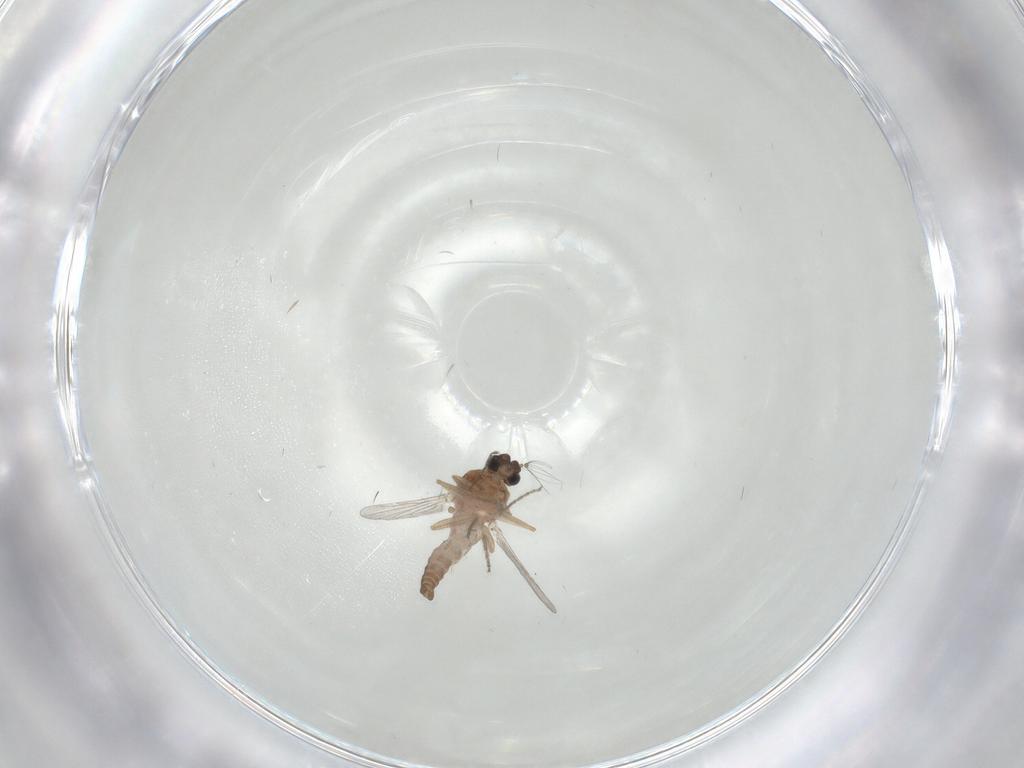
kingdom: Animalia
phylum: Arthropoda
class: Insecta
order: Diptera
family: Ceratopogonidae
